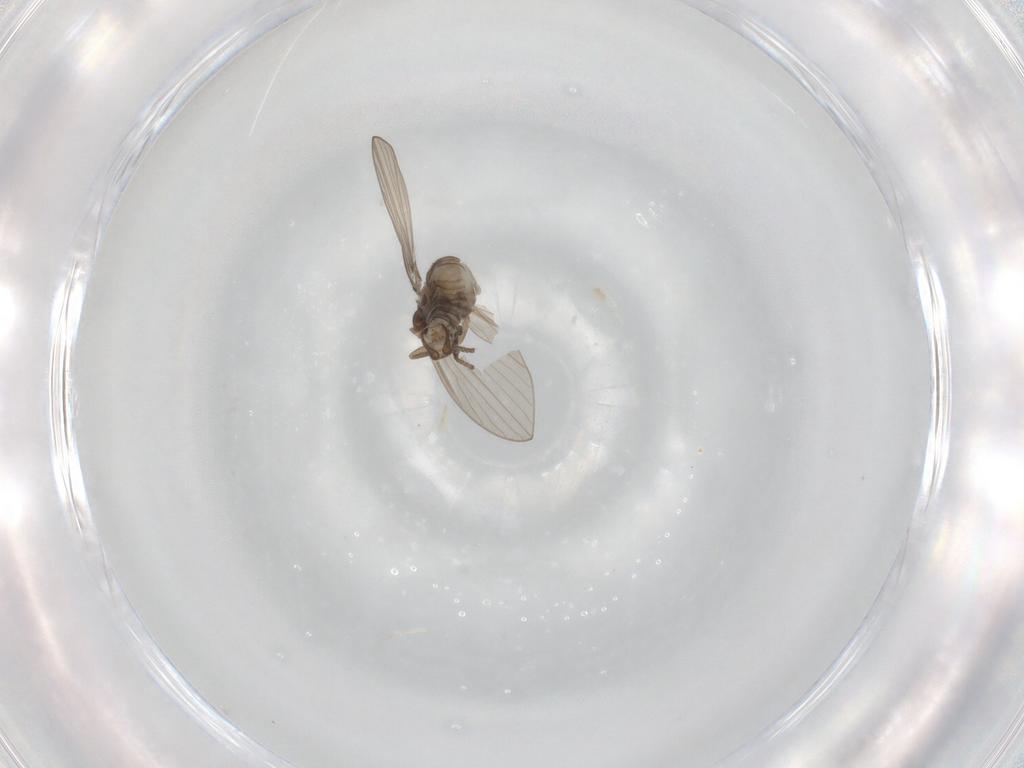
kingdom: Animalia
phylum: Arthropoda
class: Insecta
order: Diptera
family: Psychodidae
